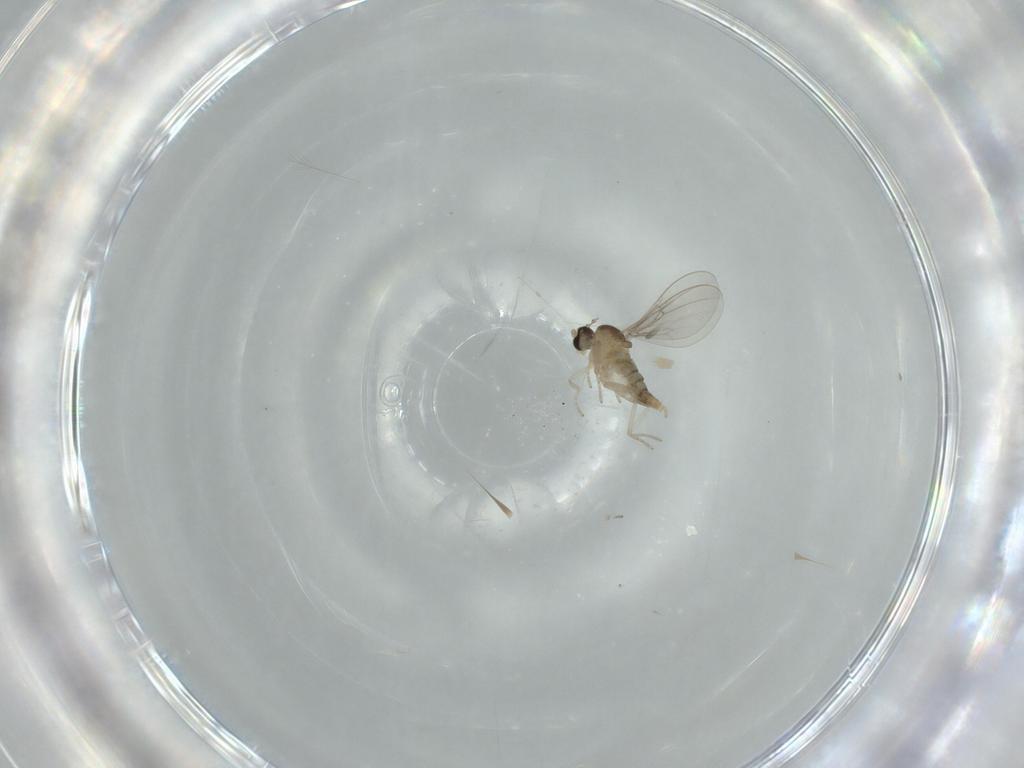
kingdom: Animalia
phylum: Arthropoda
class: Insecta
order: Diptera
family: Cecidomyiidae
